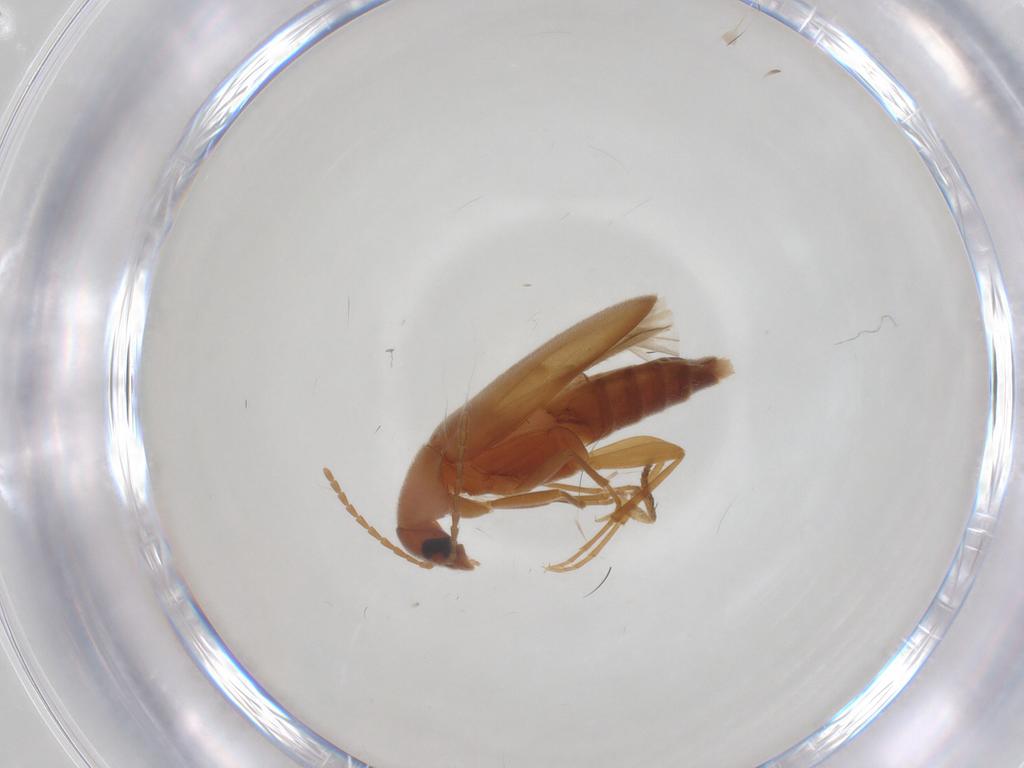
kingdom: Animalia
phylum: Arthropoda
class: Insecta
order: Coleoptera
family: Scraptiidae
